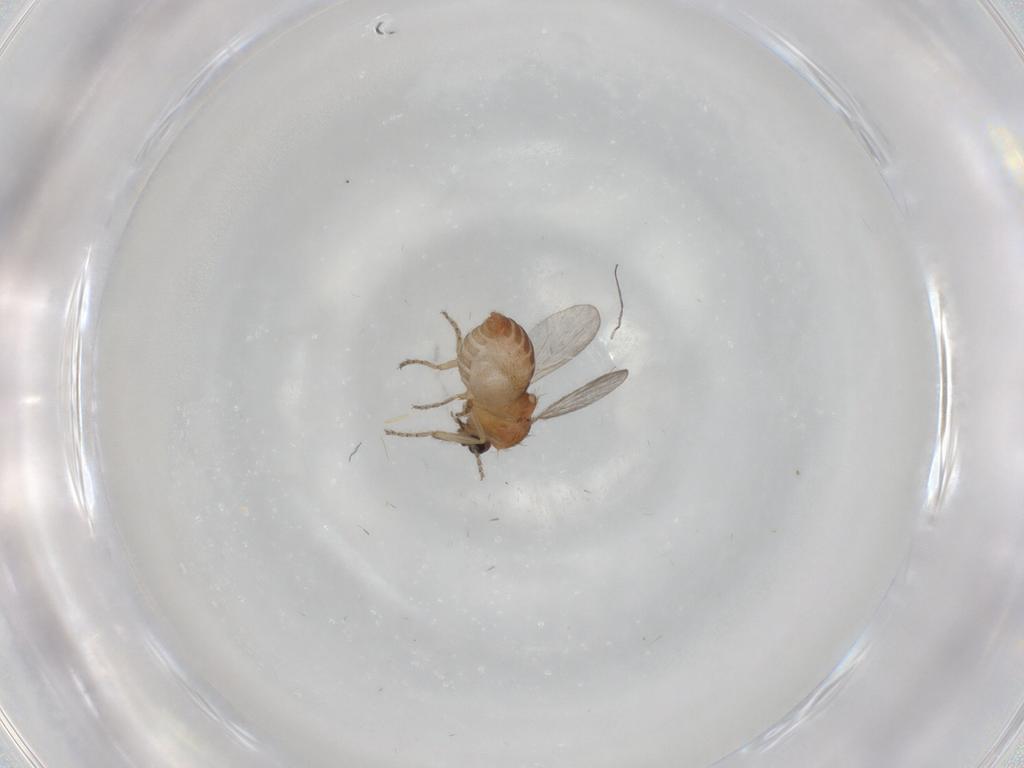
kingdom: Animalia
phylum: Arthropoda
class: Insecta
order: Diptera
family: Ceratopogonidae
